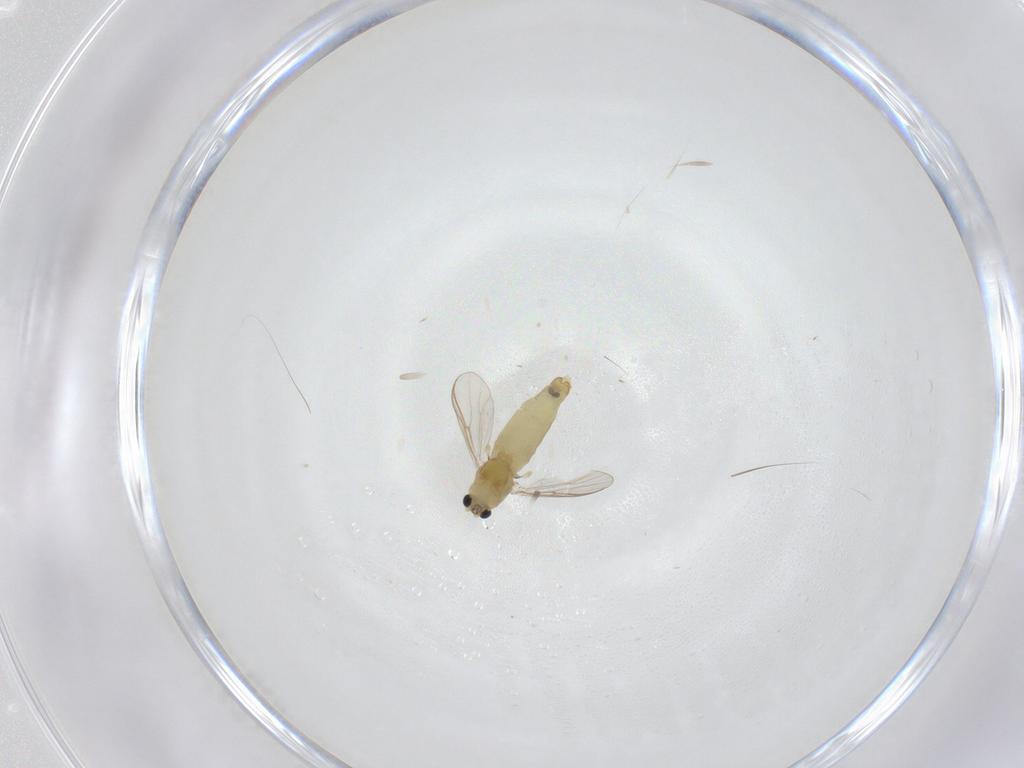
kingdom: Animalia
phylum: Arthropoda
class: Insecta
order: Diptera
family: Chironomidae
